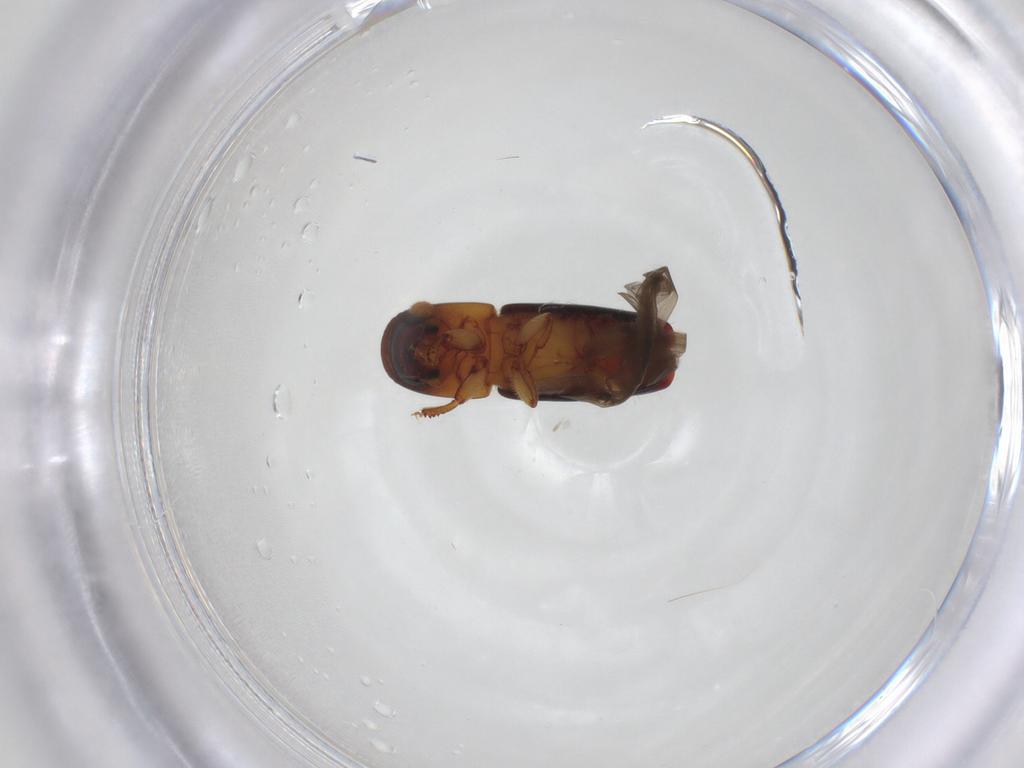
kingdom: Animalia
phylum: Arthropoda
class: Insecta
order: Coleoptera
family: Curculionidae
